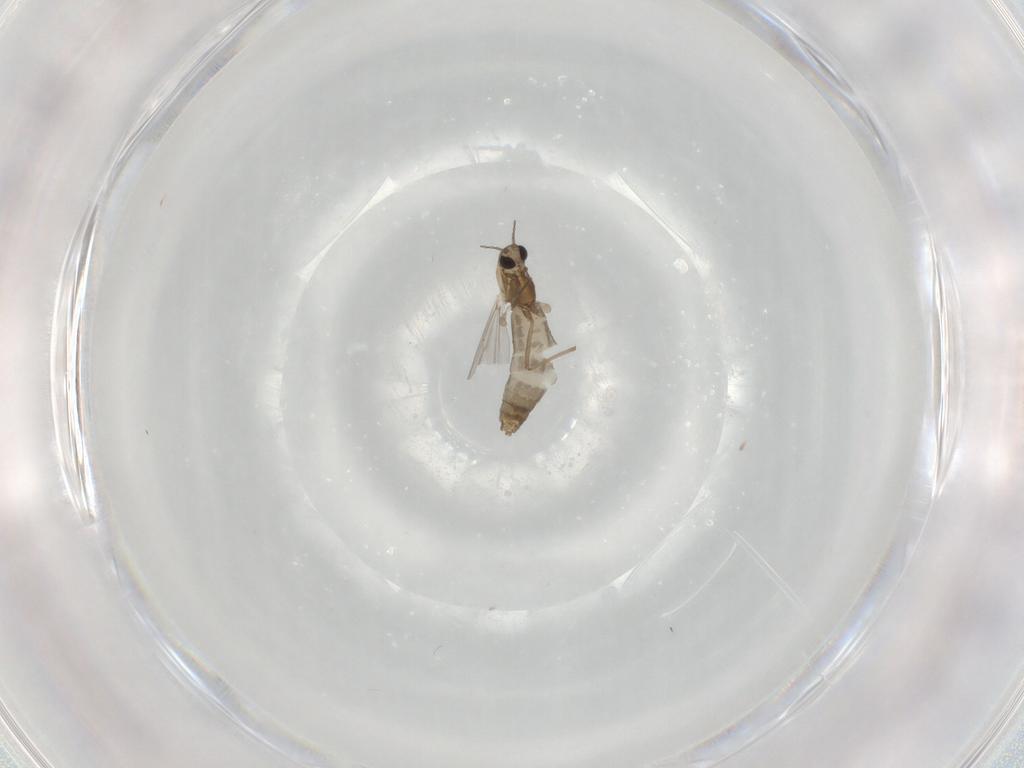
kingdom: Animalia
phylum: Arthropoda
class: Insecta
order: Diptera
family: Chironomidae
